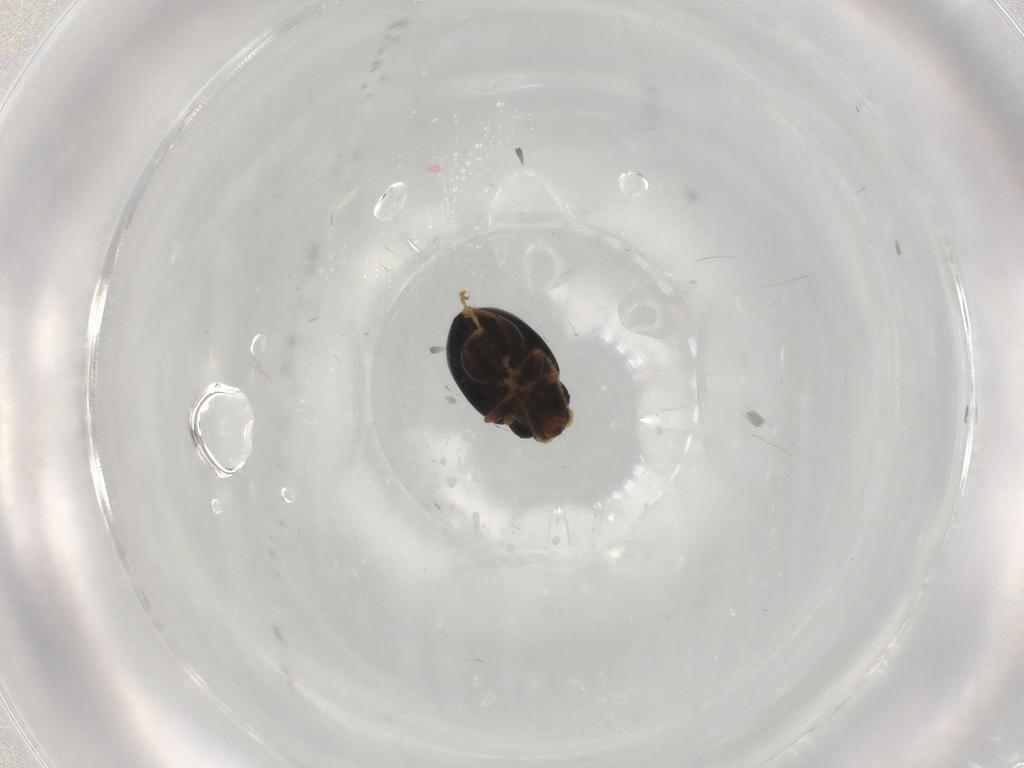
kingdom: Animalia
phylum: Arthropoda
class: Insecta
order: Coleoptera
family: Chrysomelidae
